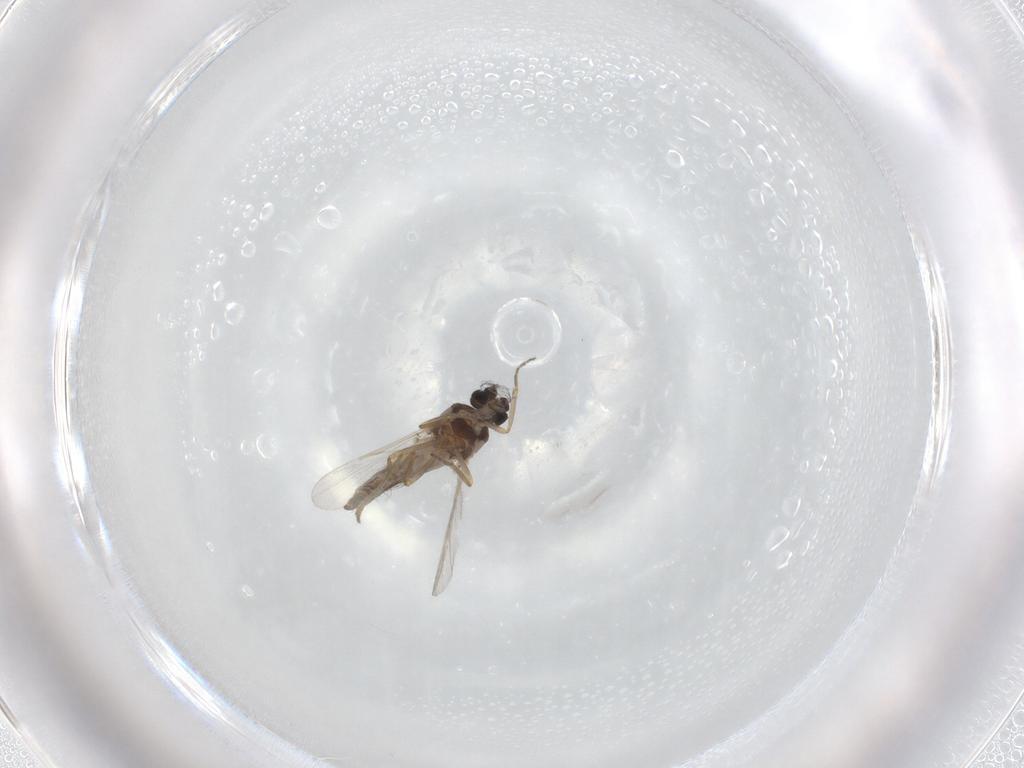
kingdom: Animalia
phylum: Arthropoda
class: Insecta
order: Diptera
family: Ceratopogonidae
